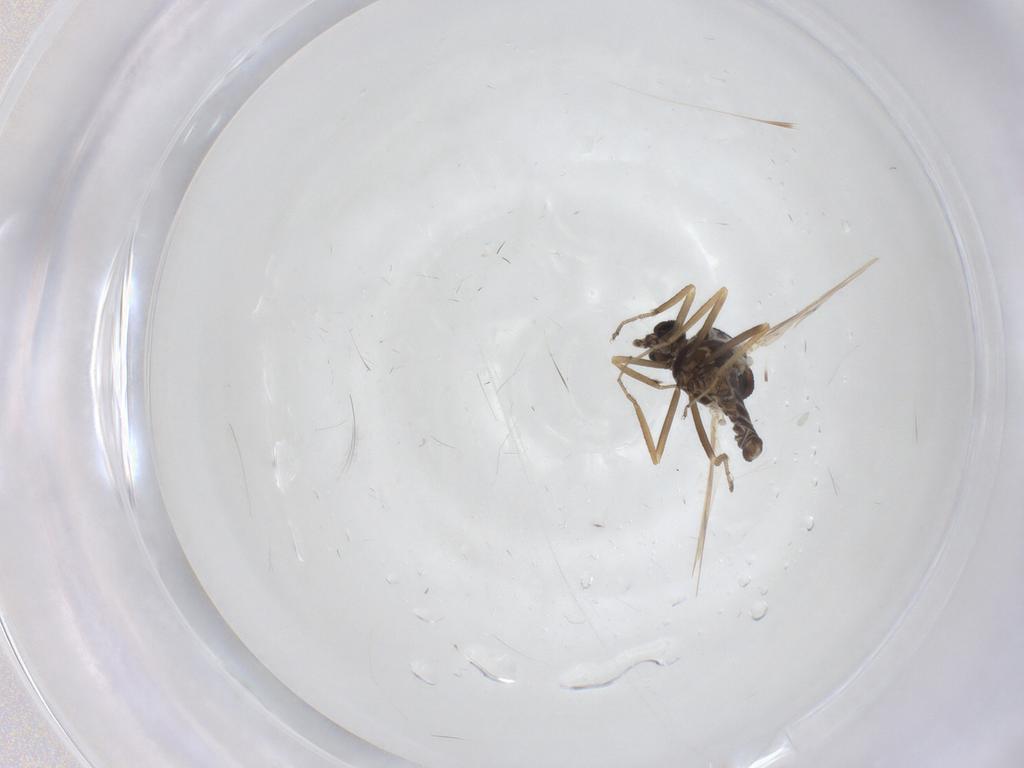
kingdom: Animalia
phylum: Arthropoda
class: Insecta
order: Diptera
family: Ceratopogonidae
